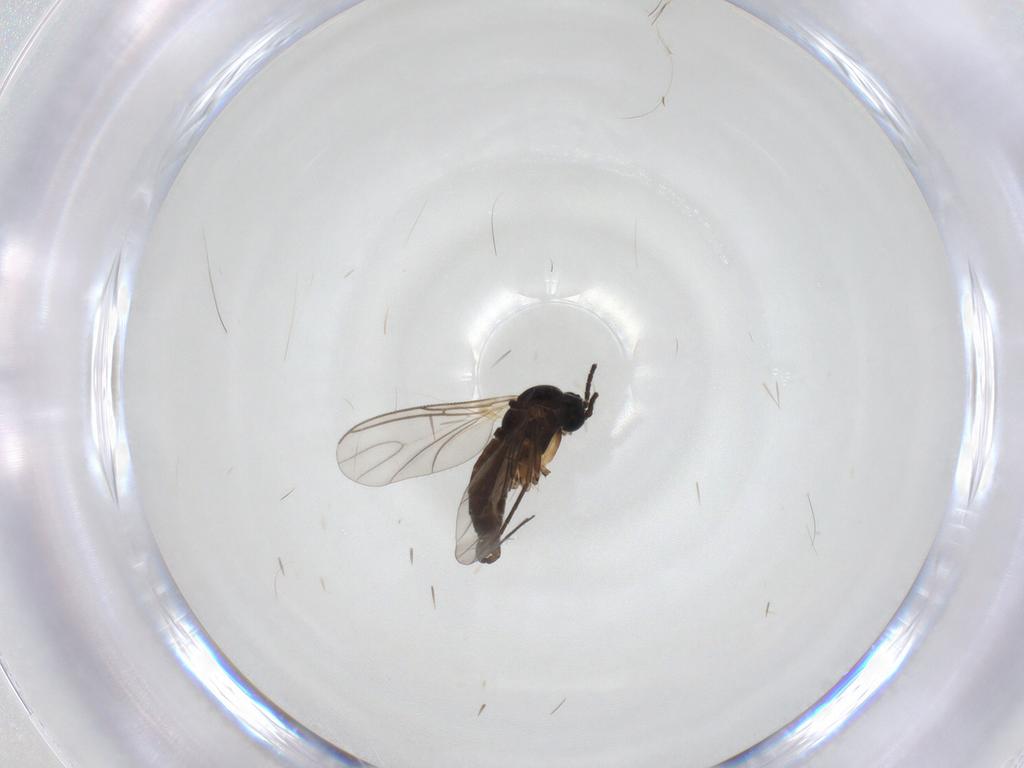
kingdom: Animalia
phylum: Arthropoda
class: Insecta
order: Diptera
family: Sciaridae
